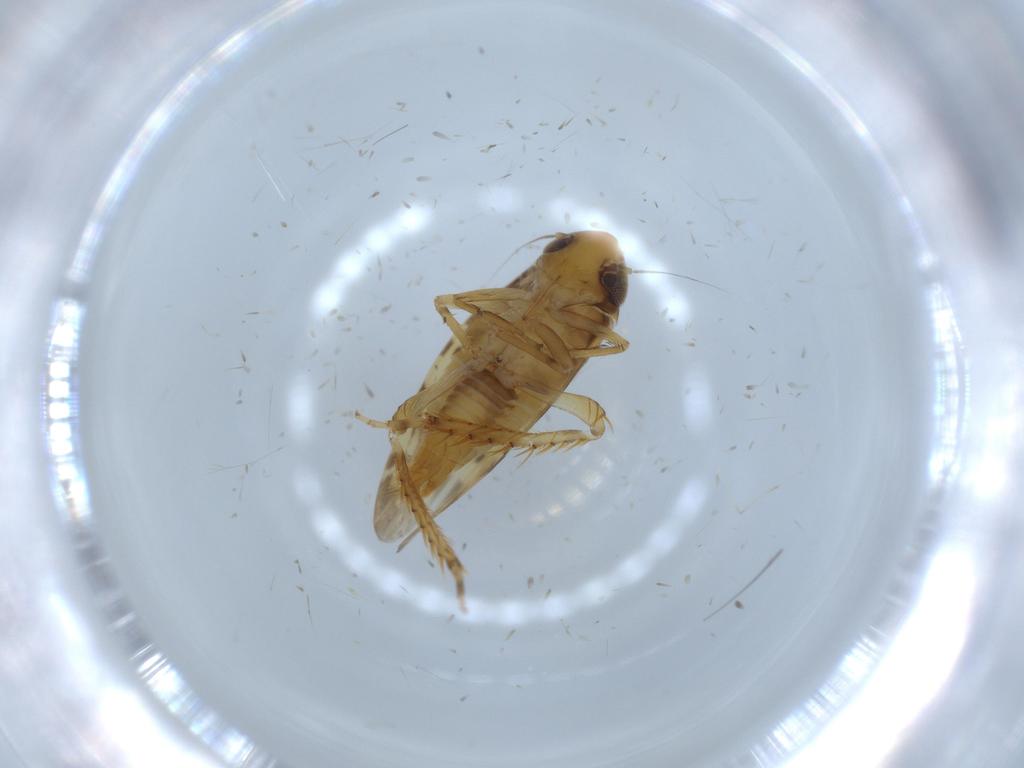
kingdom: Animalia
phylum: Arthropoda
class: Insecta
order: Hemiptera
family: Cicadellidae
